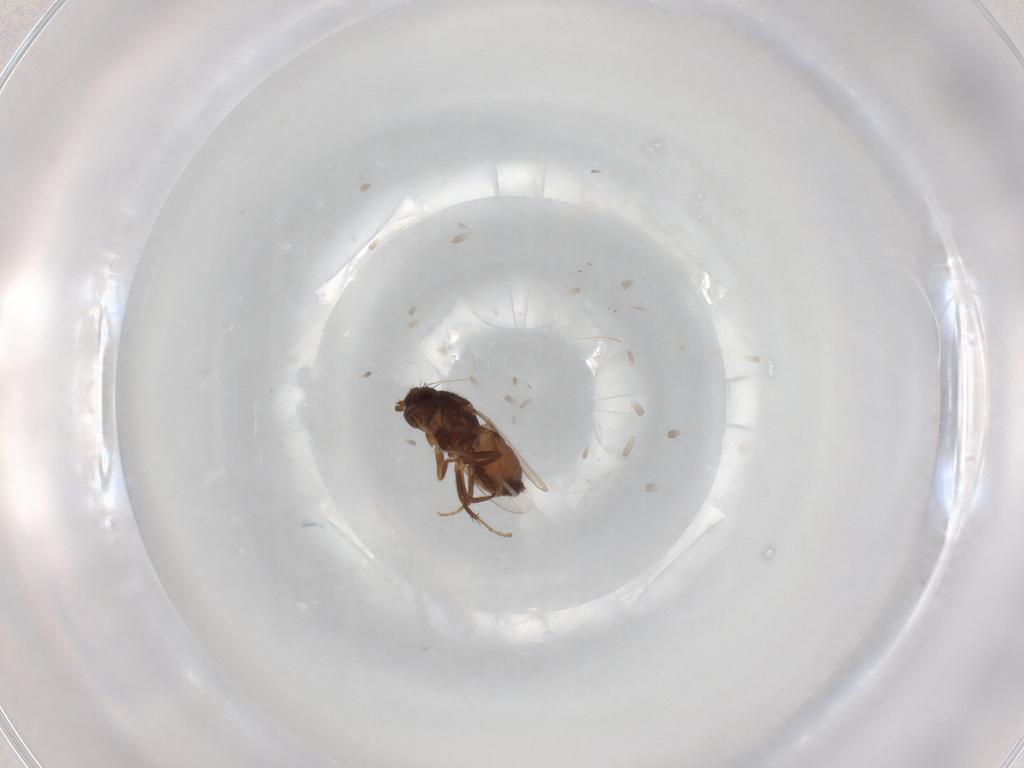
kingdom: Animalia
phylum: Arthropoda
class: Insecta
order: Diptera
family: Sphaeroceridae
